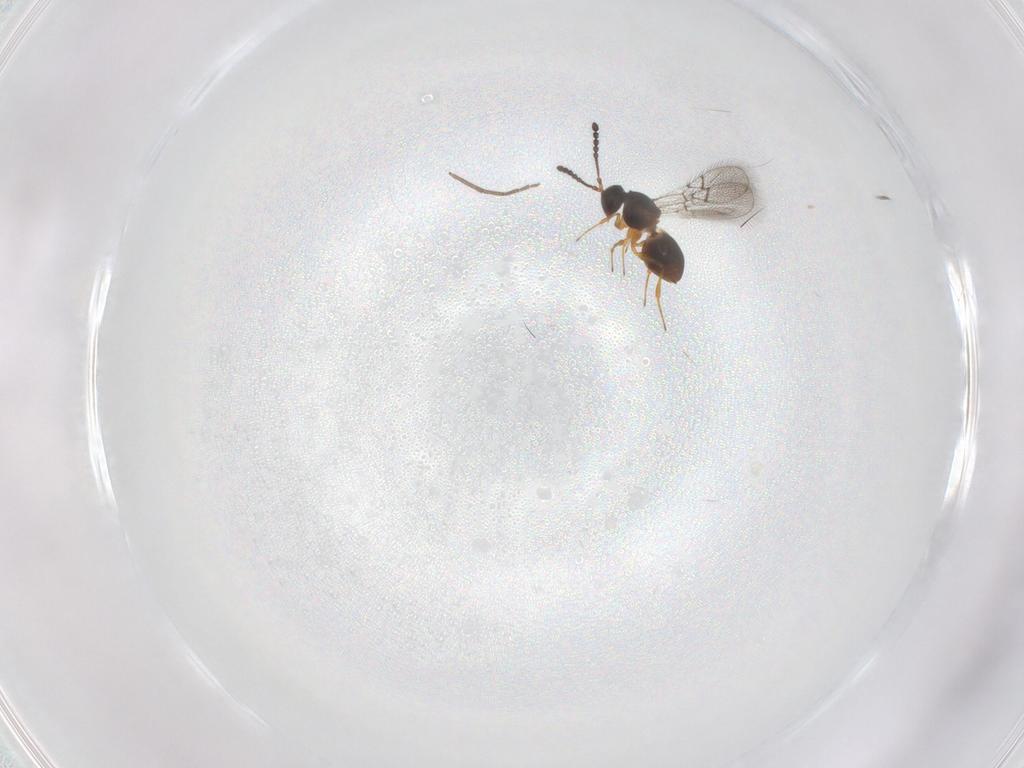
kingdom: Animalia
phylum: Arthropoda
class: Insecta
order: Hymenoptera
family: Figitidae
